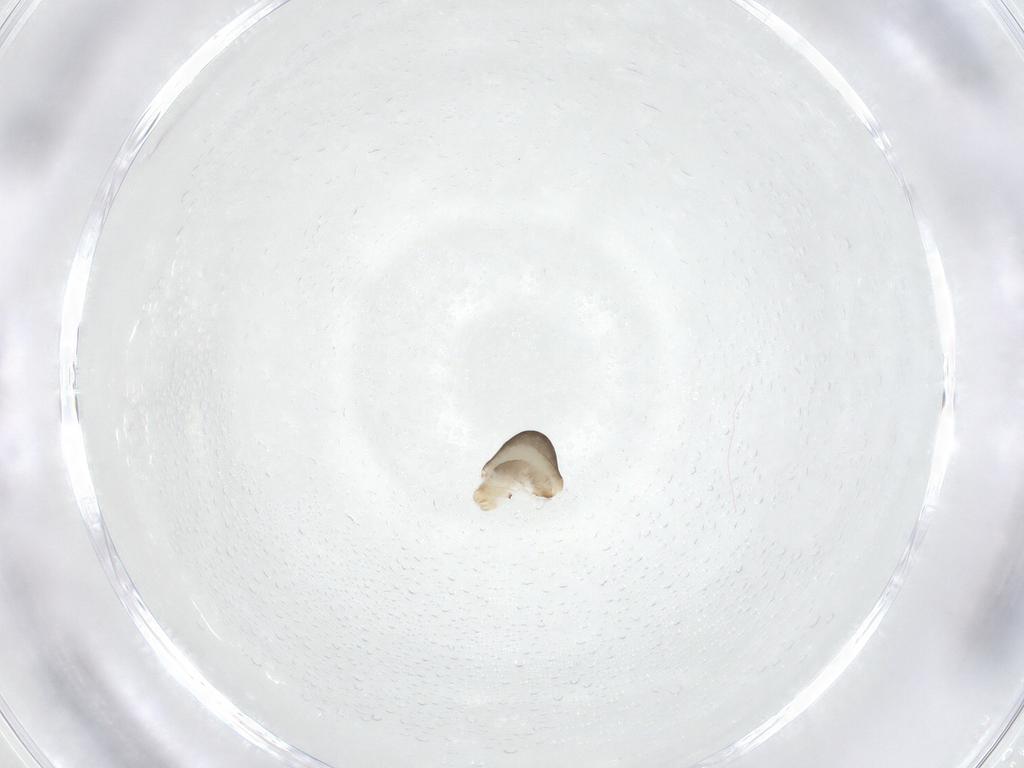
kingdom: Animalia
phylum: Arthropoda
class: Insecta
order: Hymenoptera
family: Dryinidae
